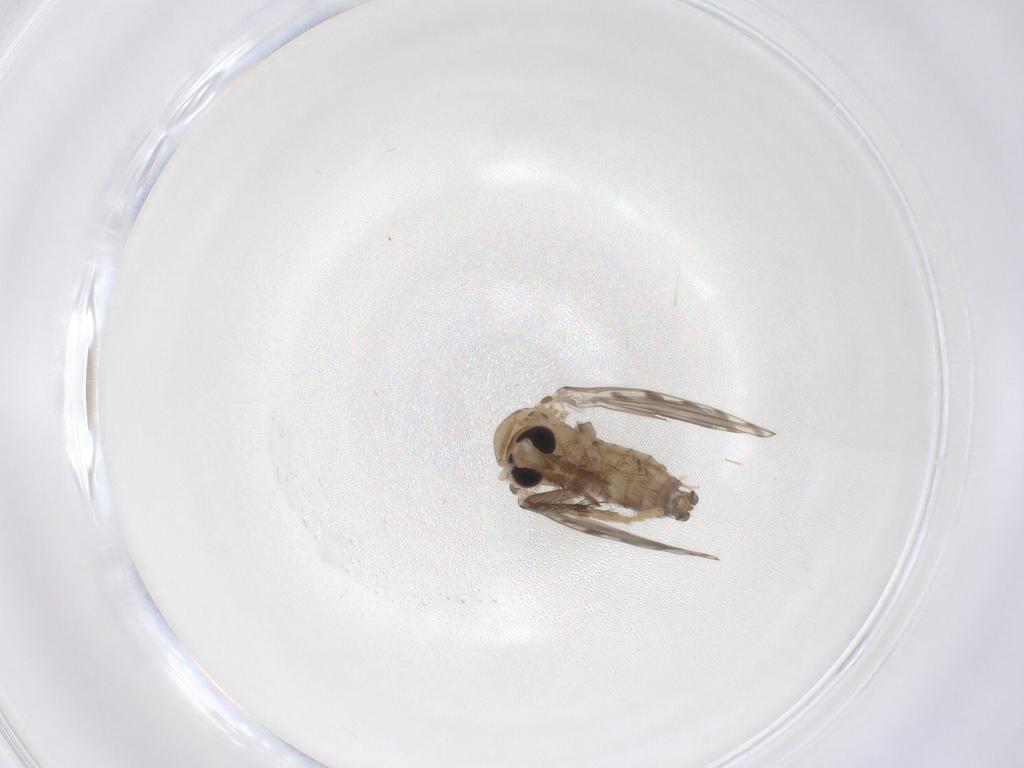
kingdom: Animalia
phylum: Arthropoda
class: Insecta
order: Diptera
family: Psychodidae
